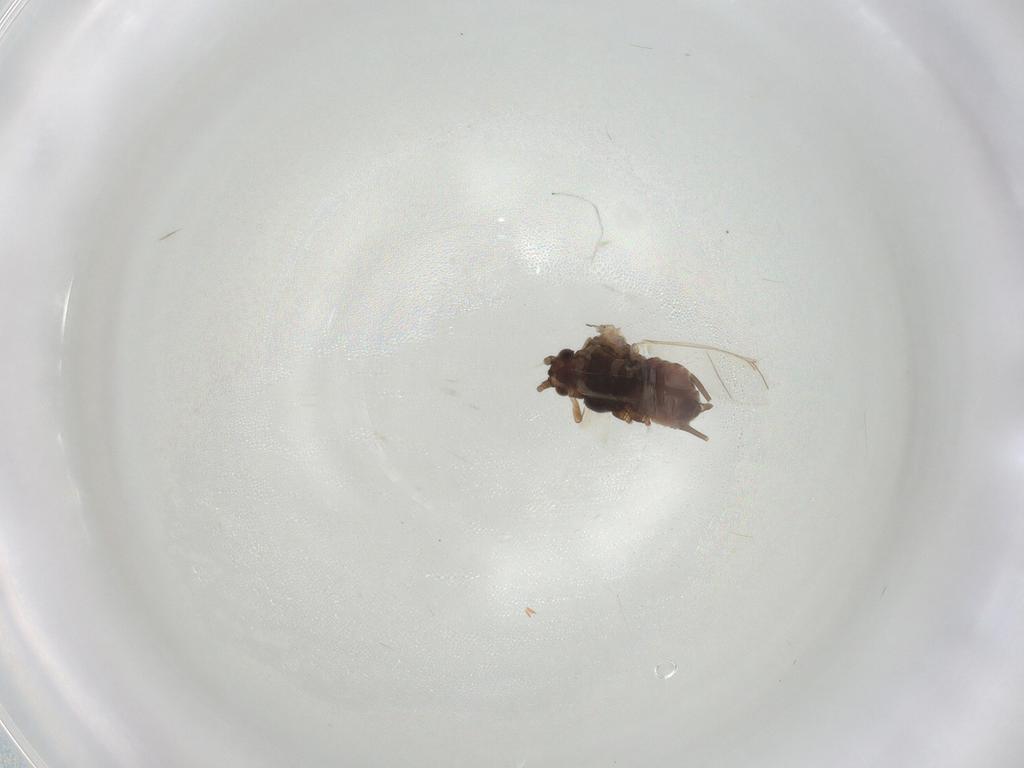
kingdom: Animalia
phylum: Arthropoda
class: Insecta
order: Hemiptera
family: Aphididae
